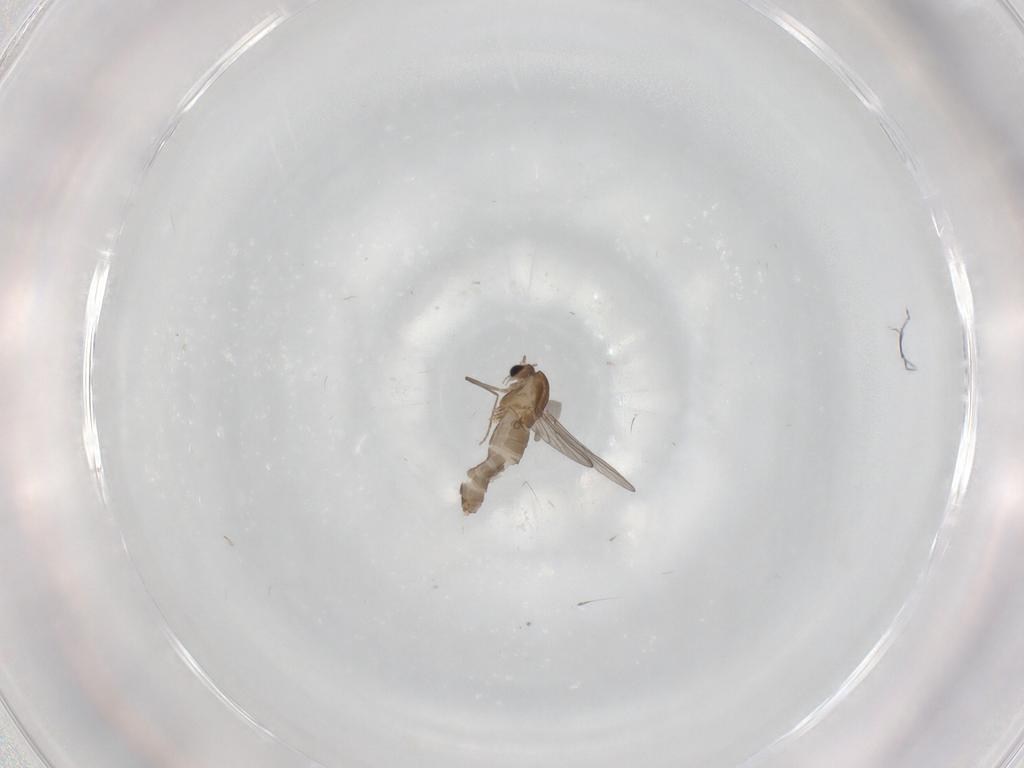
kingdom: Animalia
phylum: Arthropoda
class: Insecta
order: Diptera
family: Chironomidae
